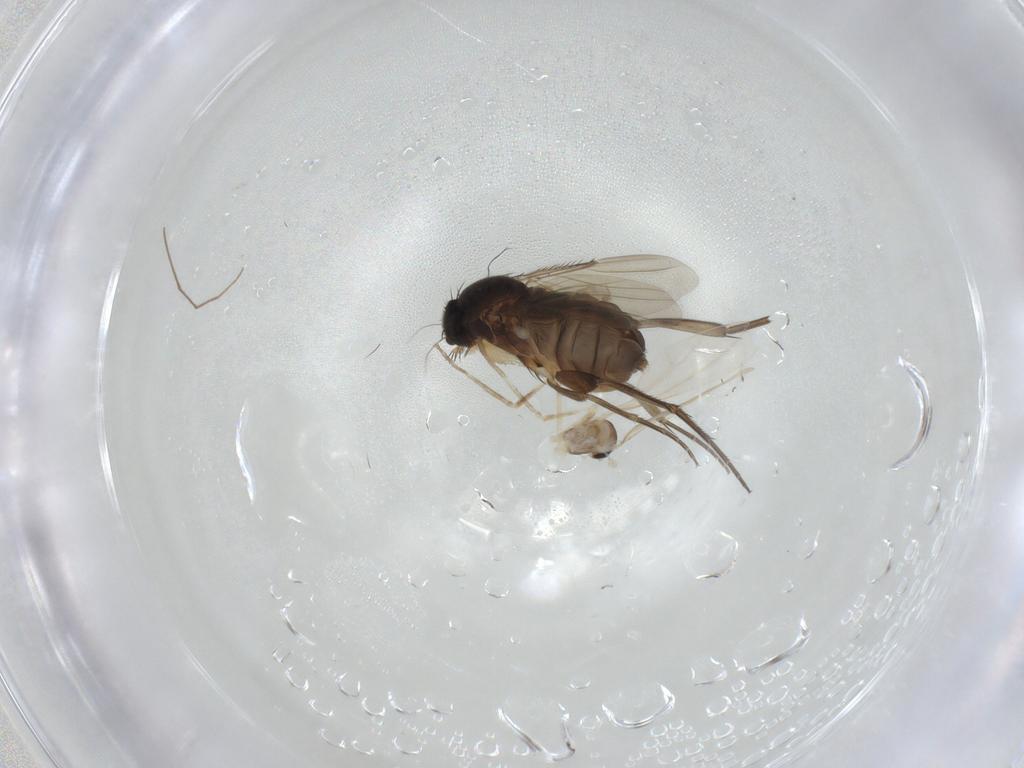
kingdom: Animalia
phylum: Arthropoda
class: Insecta
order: Diptera
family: Cecidomyiidae
